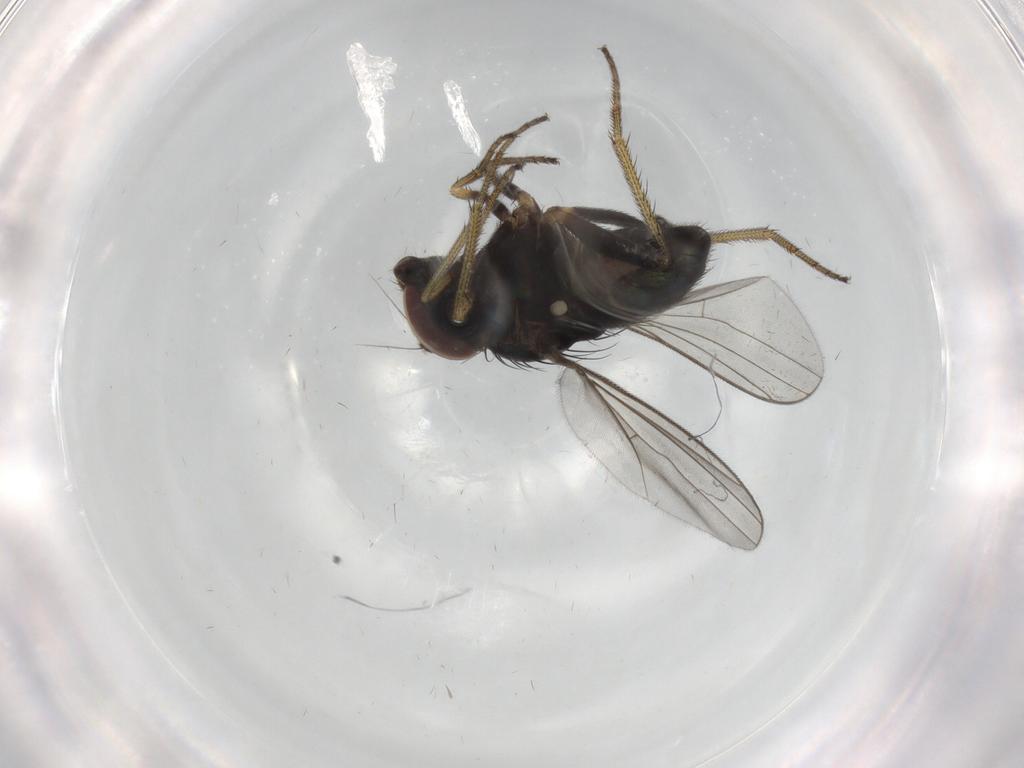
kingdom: Animalia
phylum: Arthropoda
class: Insecta
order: Diptera
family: Dolichopodidae
